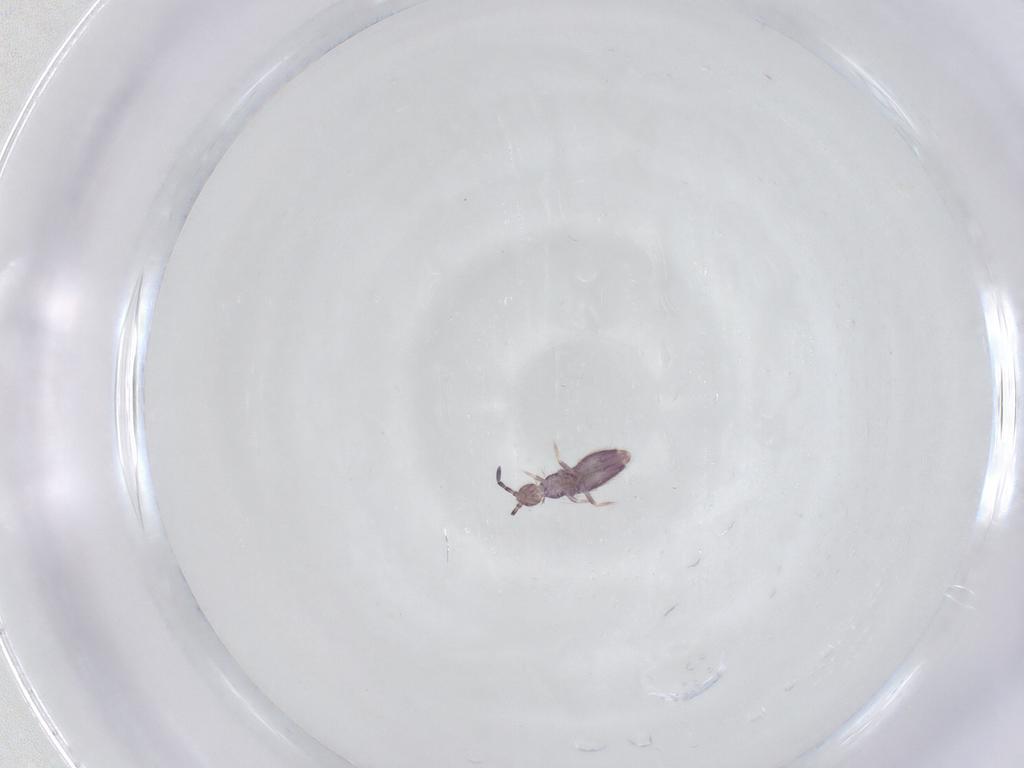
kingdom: Animalia
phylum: Arthropoda
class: Collembola
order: Entomobryomorpha
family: Entomobryidae
